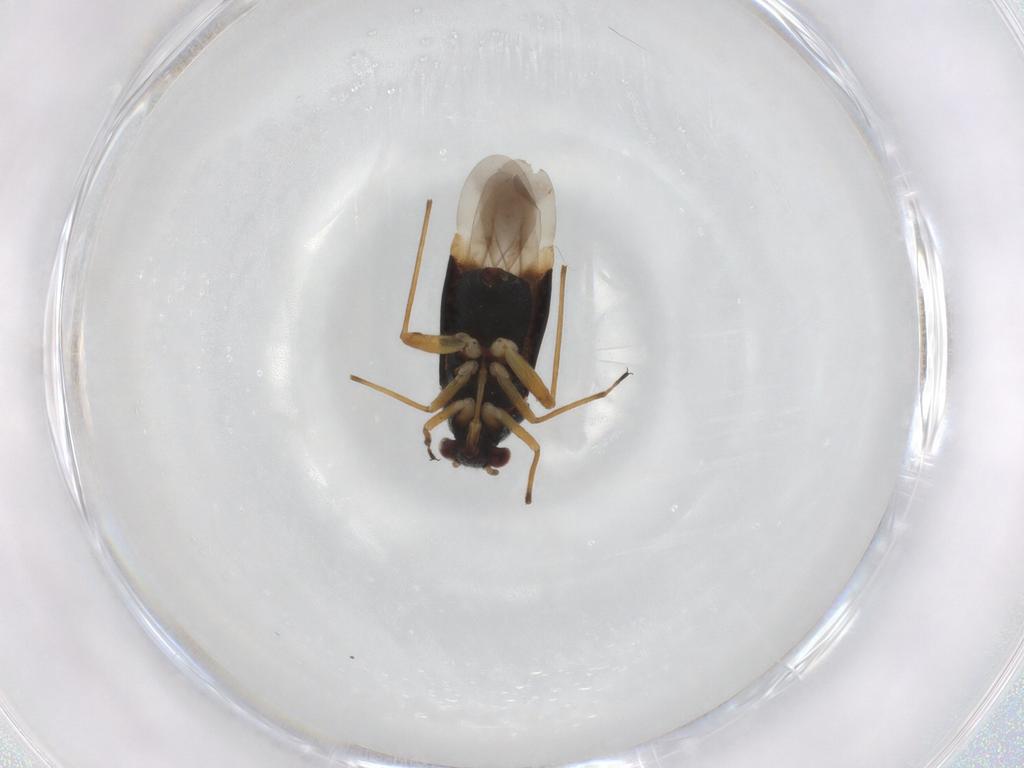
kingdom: Animalia
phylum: Arthropoda
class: Insecta
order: Hemiptera
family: Miridae
